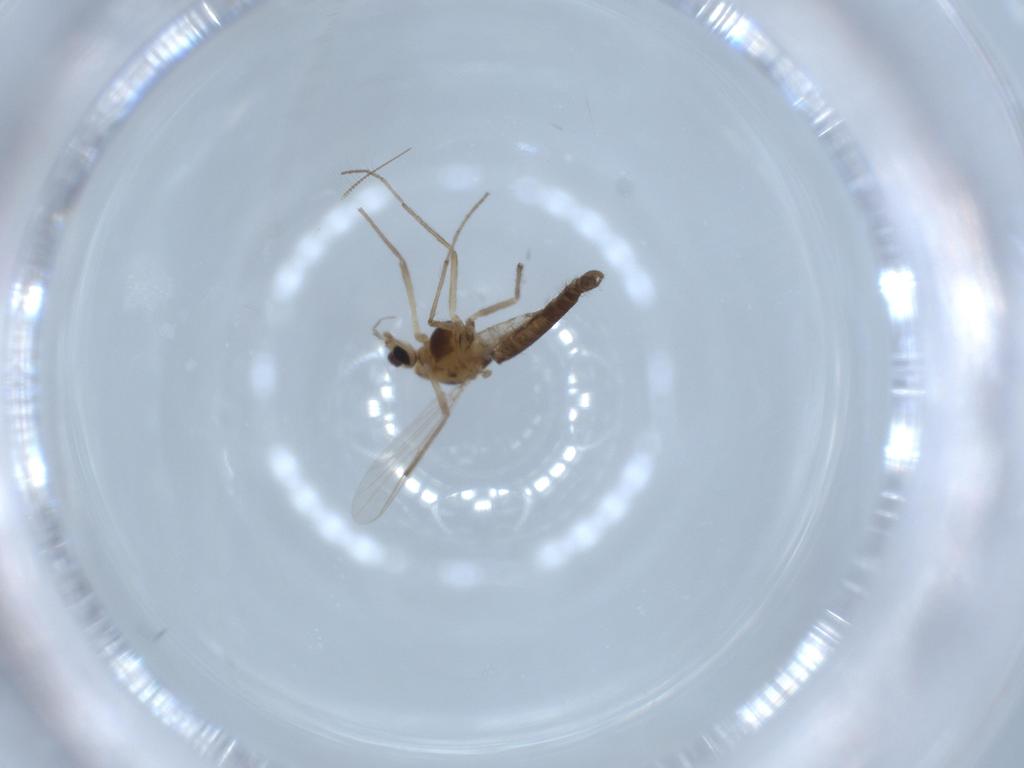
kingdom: Animalia
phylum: Arthropoda
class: Insecta
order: Diptera
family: Chironomidae
